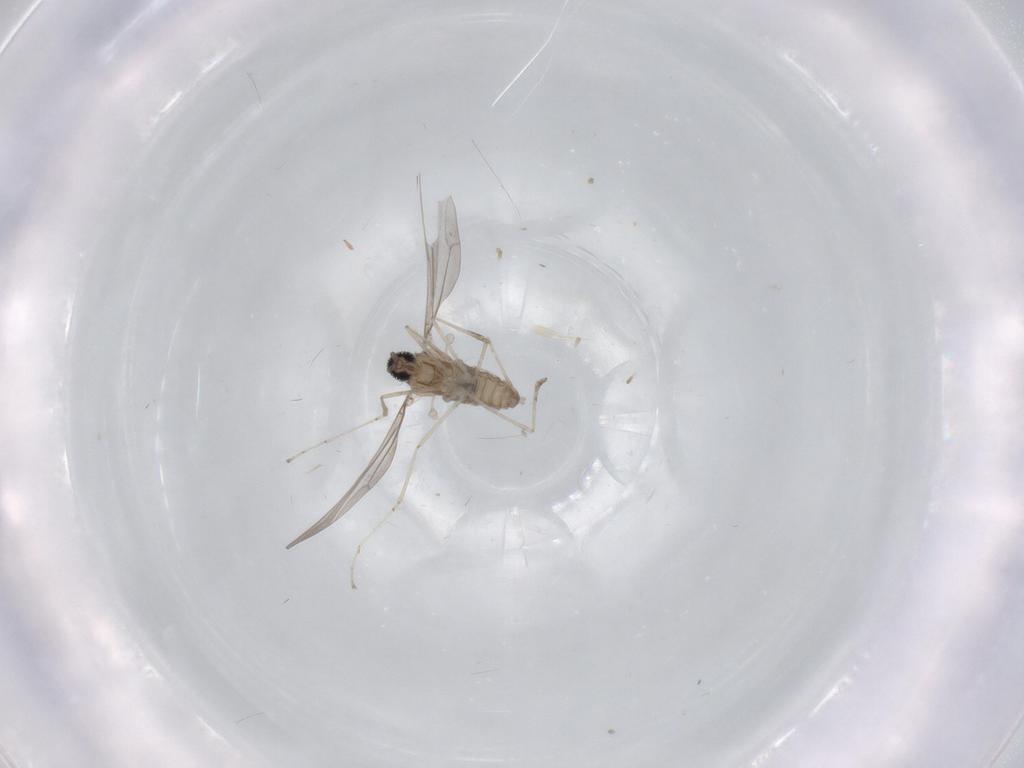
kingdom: Animalia
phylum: Arthropoda
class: Insecta
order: Diptera
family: Cecidomyiidae
